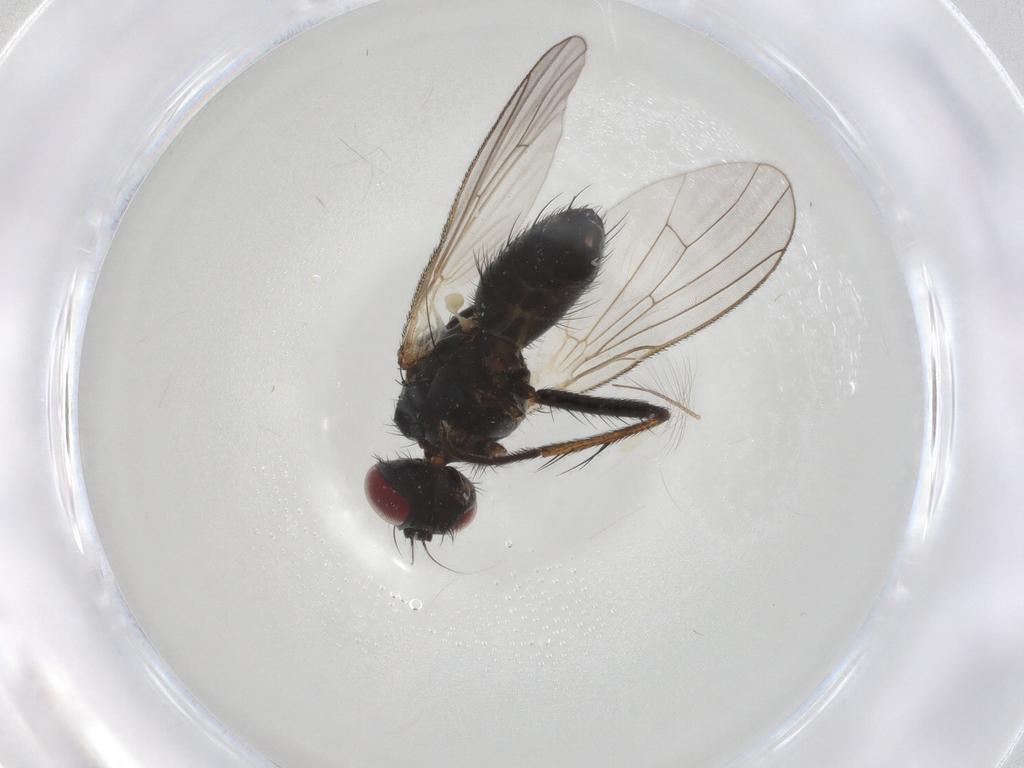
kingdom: Animalia
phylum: Arthropoda
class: Insecta
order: Diptera
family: Muscidae
